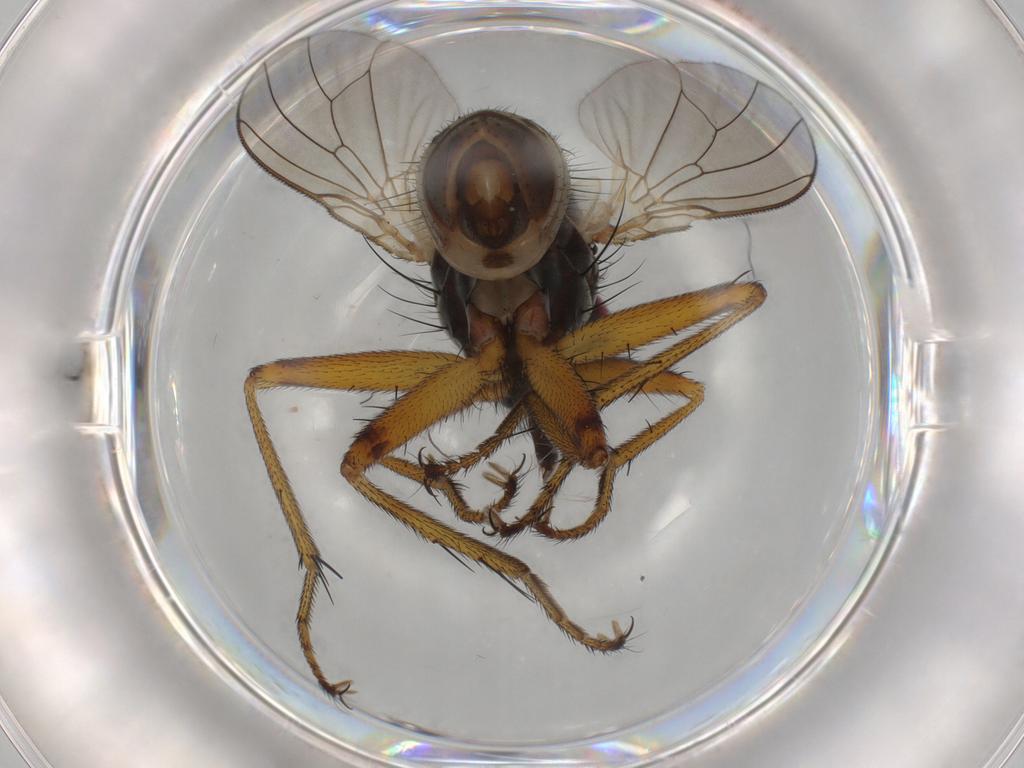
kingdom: Animalia
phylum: Arthropoda
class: Insecta
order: Diptera
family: Muscidae
